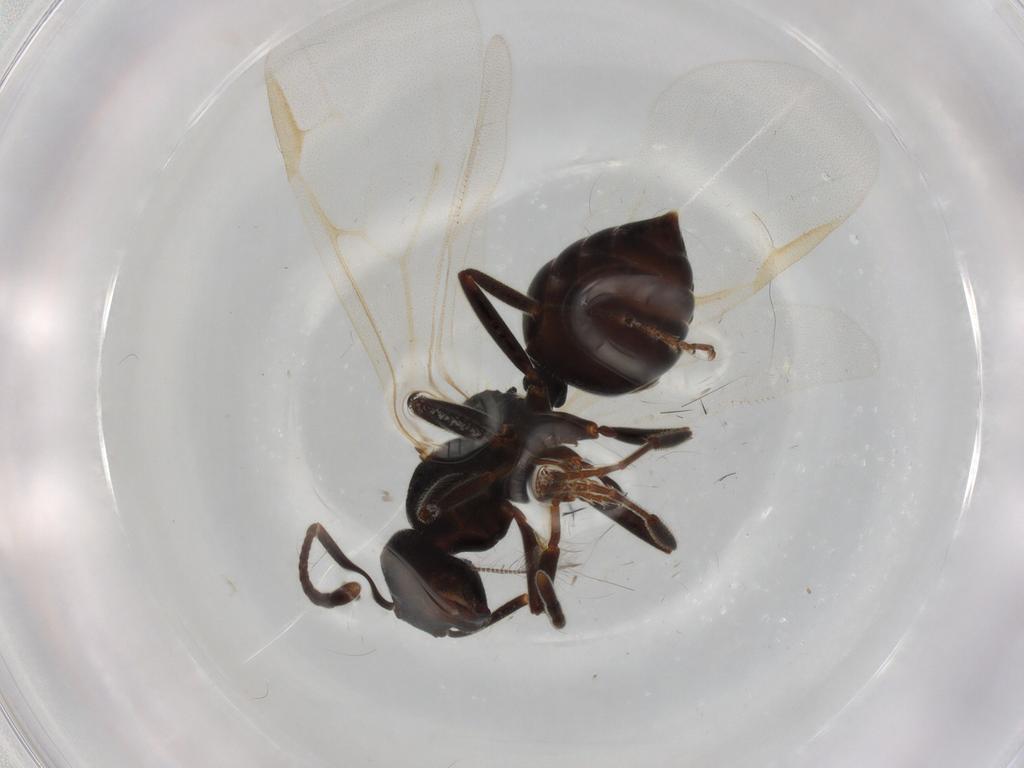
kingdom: Animalia
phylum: Arthropoda
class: Insecta
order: Hymenoptera
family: Formicidae
